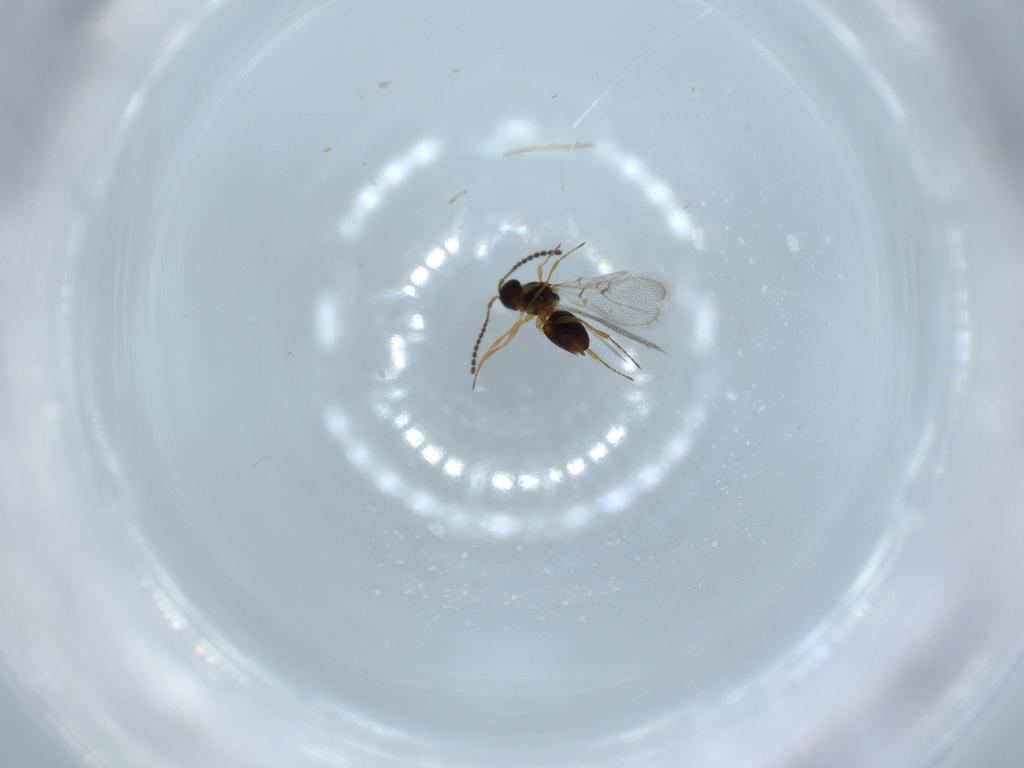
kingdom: Animalia
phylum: Arthropoda
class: Insecta
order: Hymenoptera
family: Figitidae
